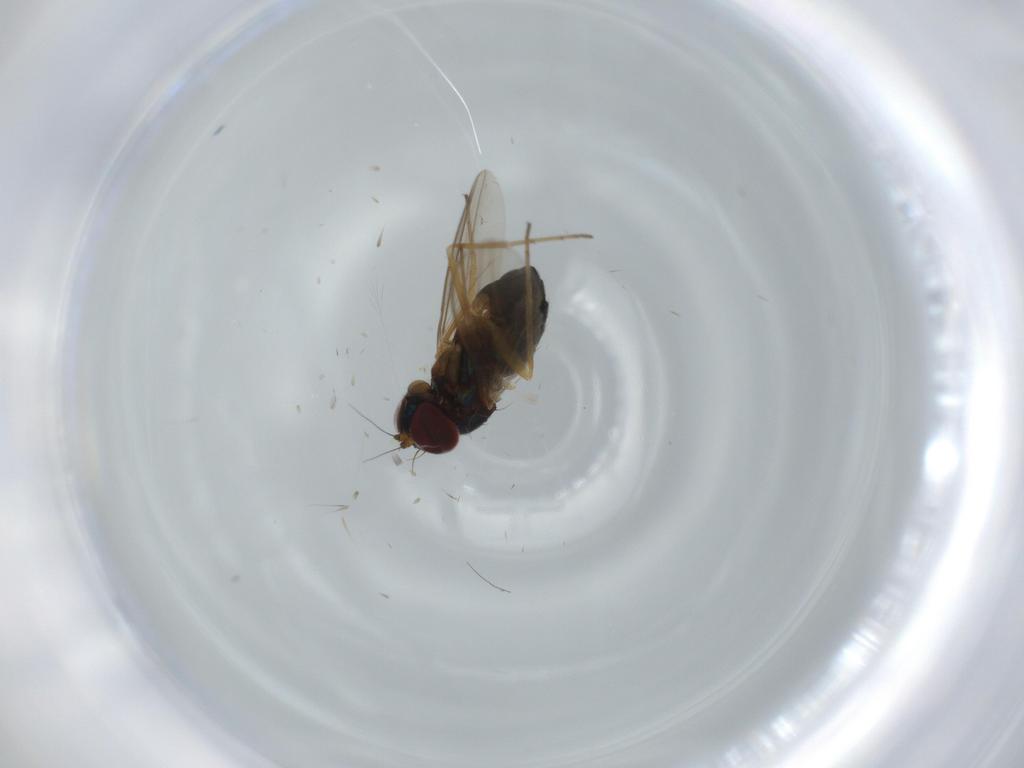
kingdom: Animalia
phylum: Arthropoda
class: Insecta
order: Diptera
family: Dolichopodidae
